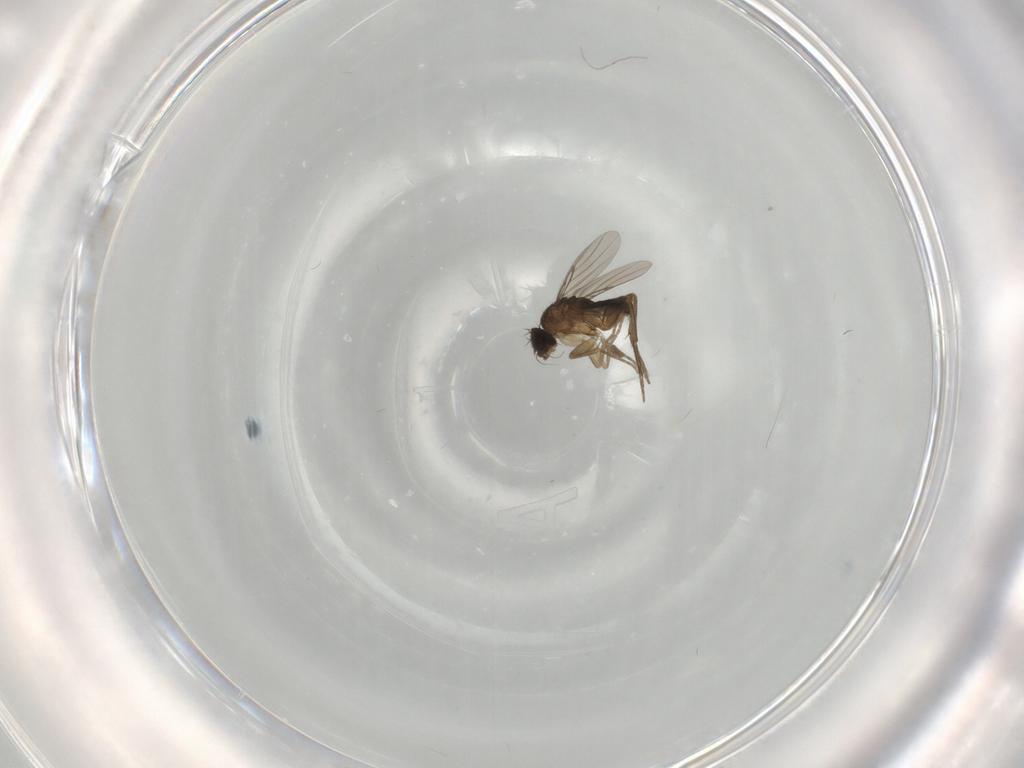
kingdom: Animalia
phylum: Arthropoda
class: Insecta
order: Diptera
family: Phoridae
